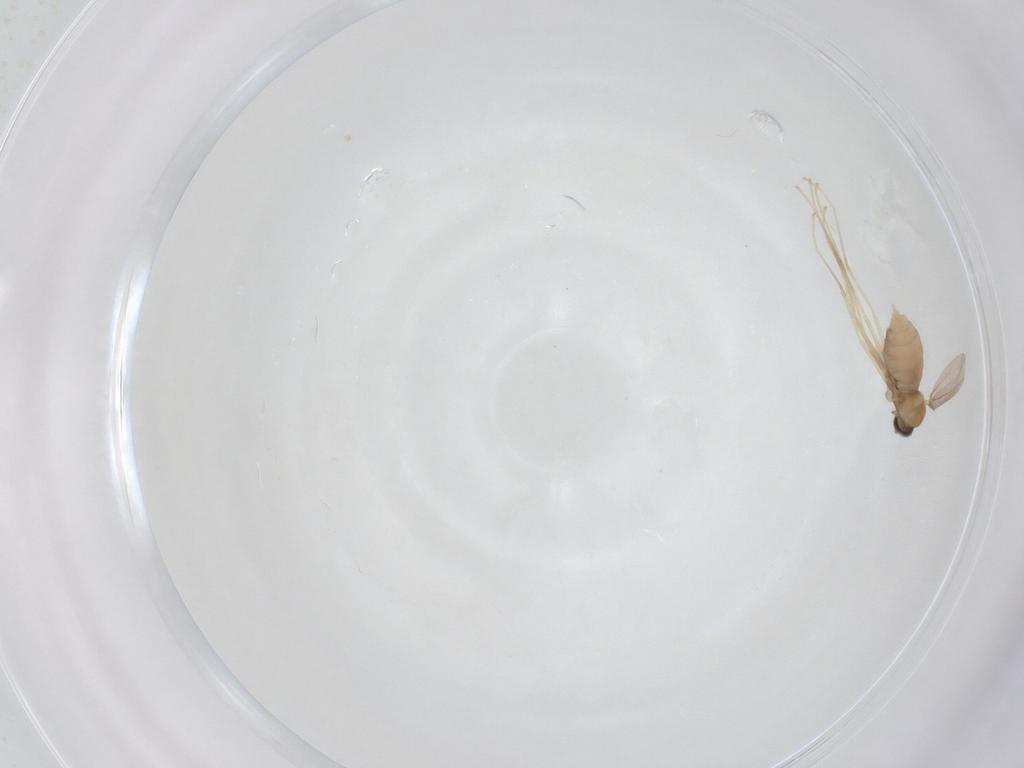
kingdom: Animalia
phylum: Arthropoda
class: Insecta
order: Diptera
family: Cecidomyiidae
